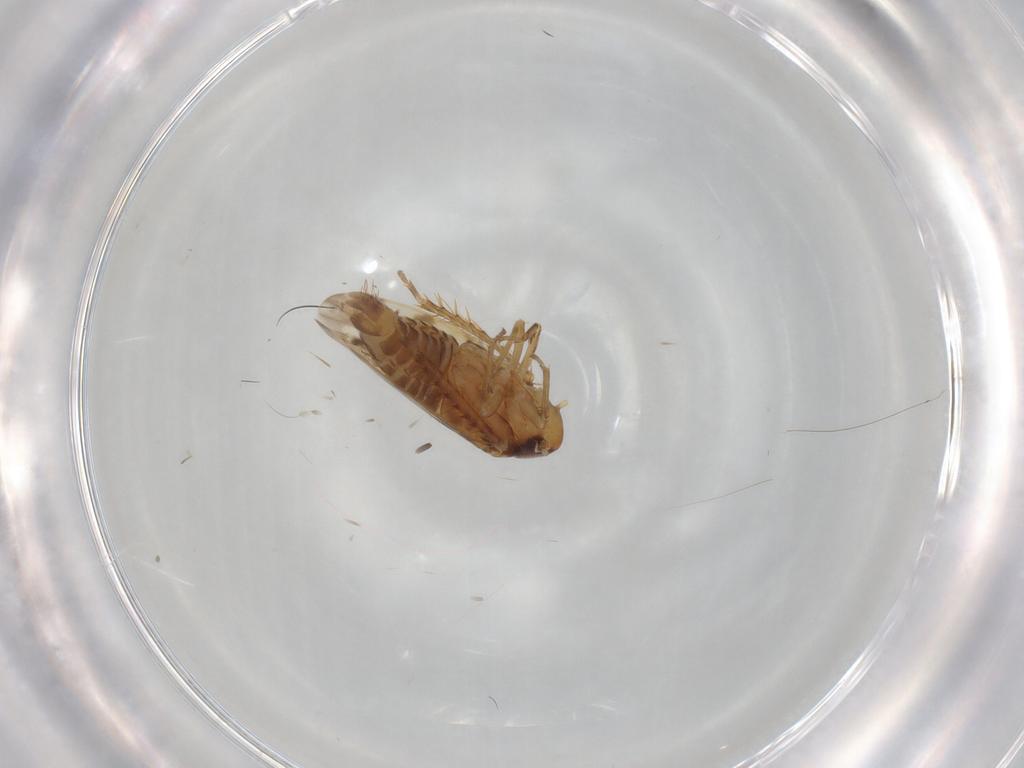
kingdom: Animalia
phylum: Arthropoda
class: Insecta
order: Hemiptera
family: Cicadellidae
